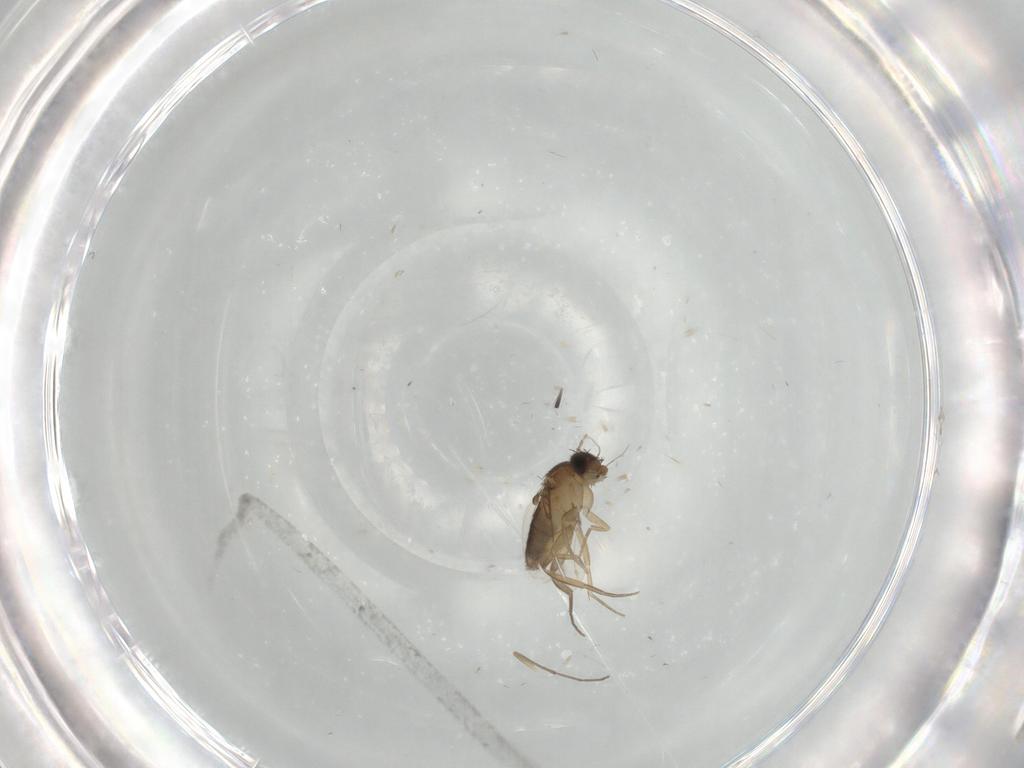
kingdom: Animalia
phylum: Arthropoda
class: Insecta
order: Diptera
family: Phoridae
